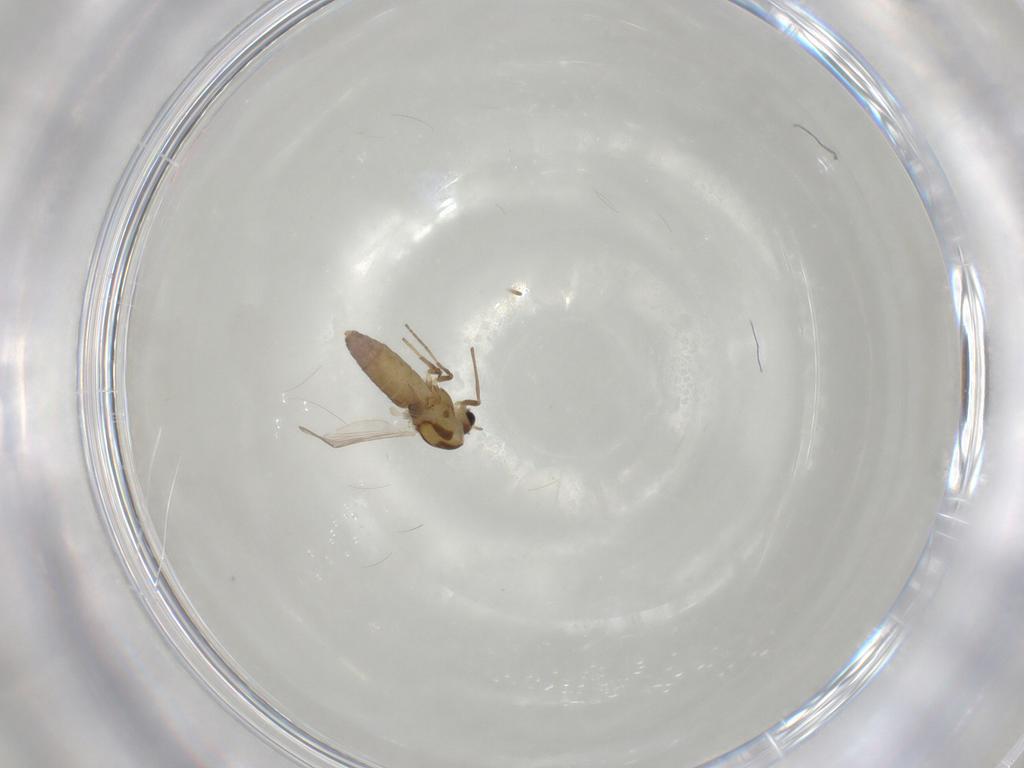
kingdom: Animalia
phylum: Arthropoda
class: Insecta
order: Diptera
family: Chironomidae
